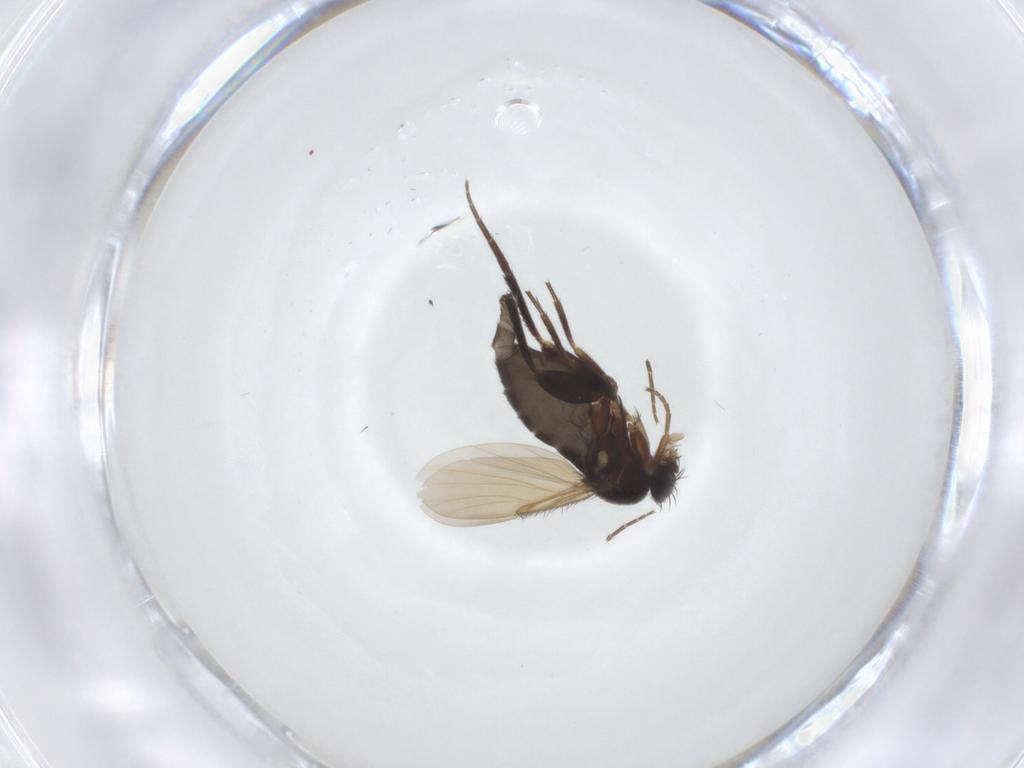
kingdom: Animalia
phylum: Arthropoda
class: Insecta
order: Diptera
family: Phoridae
